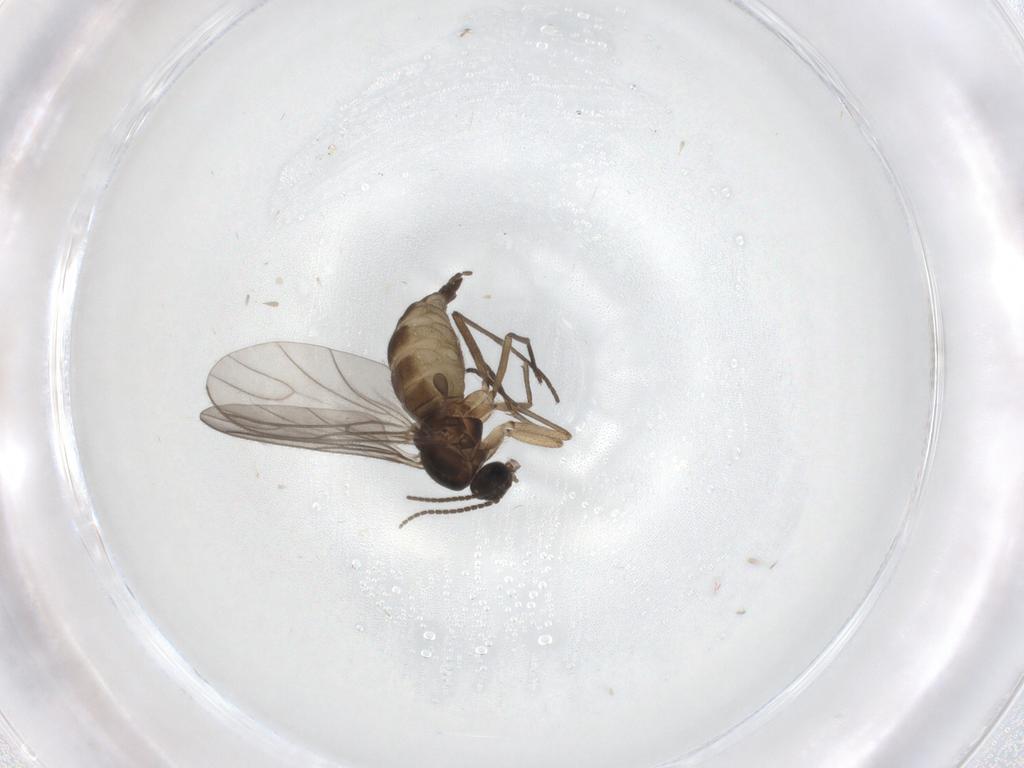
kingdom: Animalia
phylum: Arthropoda
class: Insecta
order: Diptera
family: Sciaridae
